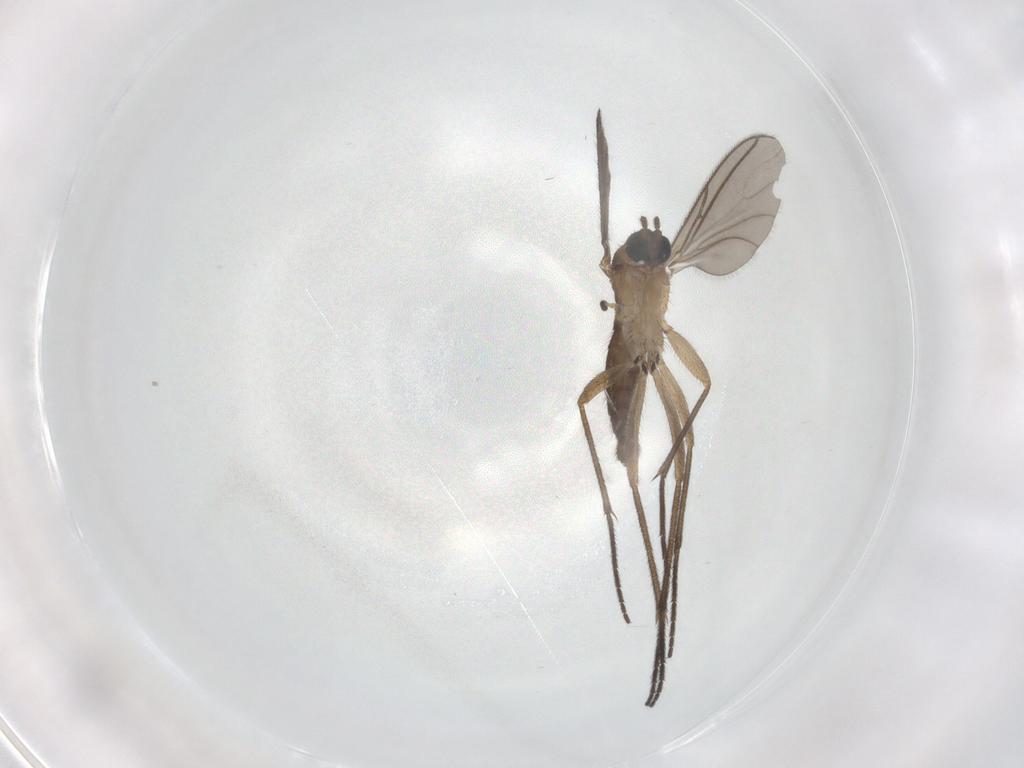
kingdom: Animalia
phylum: Arthropoda
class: Insecta
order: Diptera
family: Sciaridae
